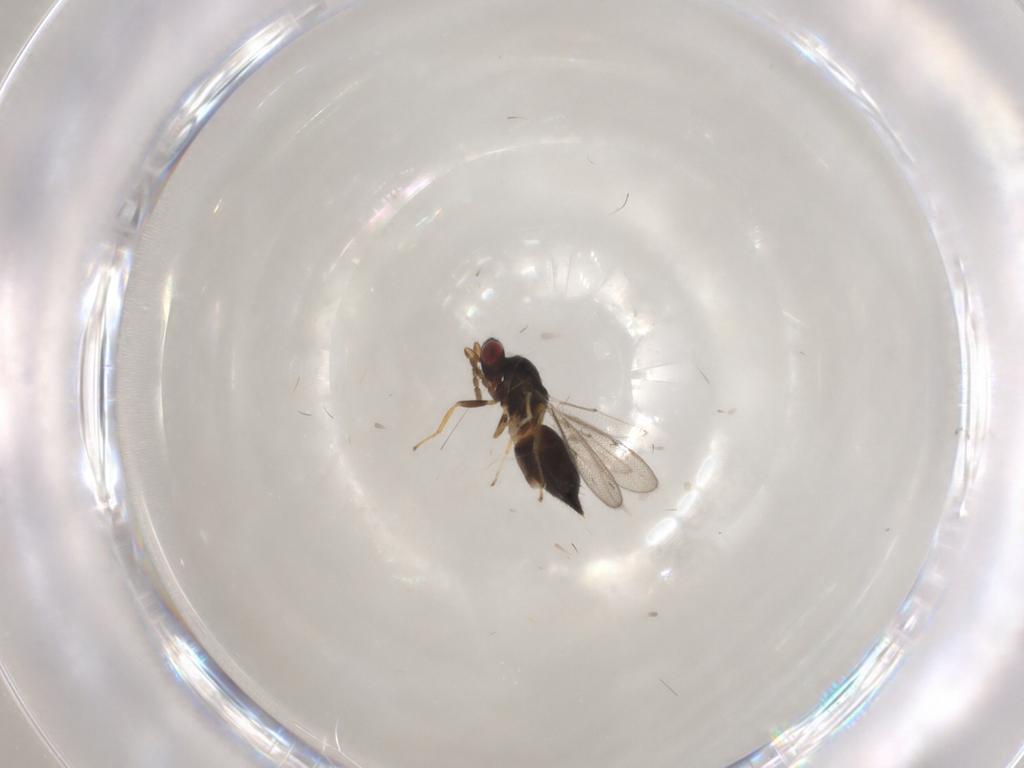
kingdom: Animalia
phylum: Arthropoda
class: Insecta
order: Hymenoptera
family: Eulophidae
